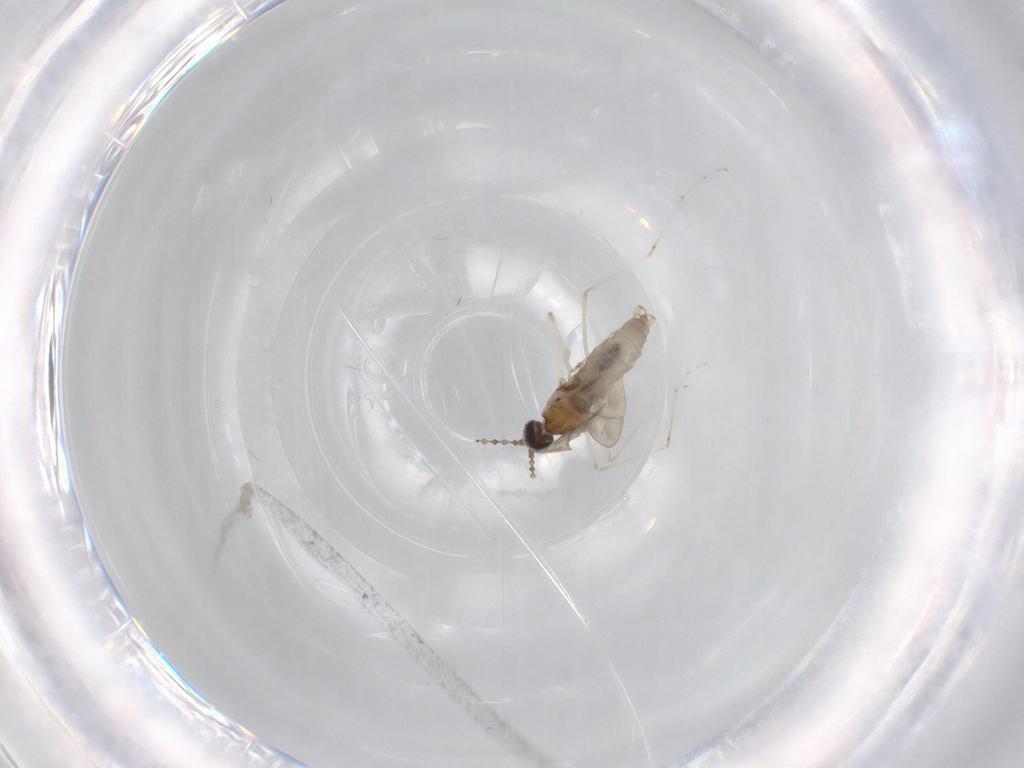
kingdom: Animalia
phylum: Arthropoda
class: Insecta
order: Diptera
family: Cecidomyiidae
